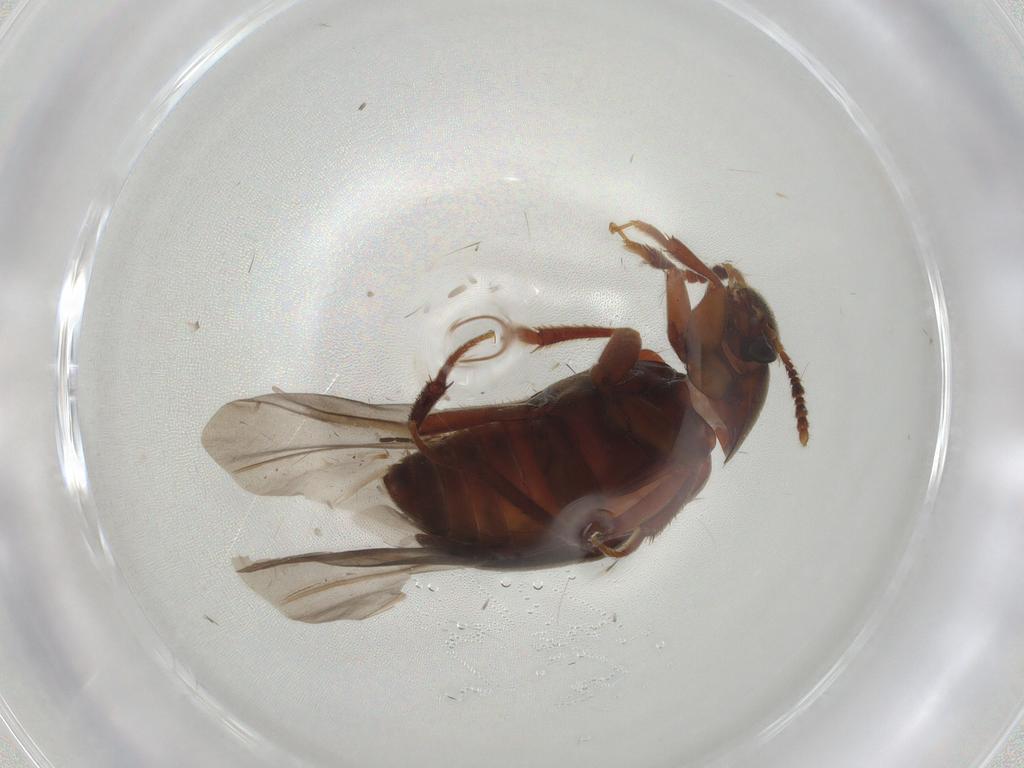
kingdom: Animalia
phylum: Arthropoda
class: Insecta
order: Coleoptera
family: Leiodidae
